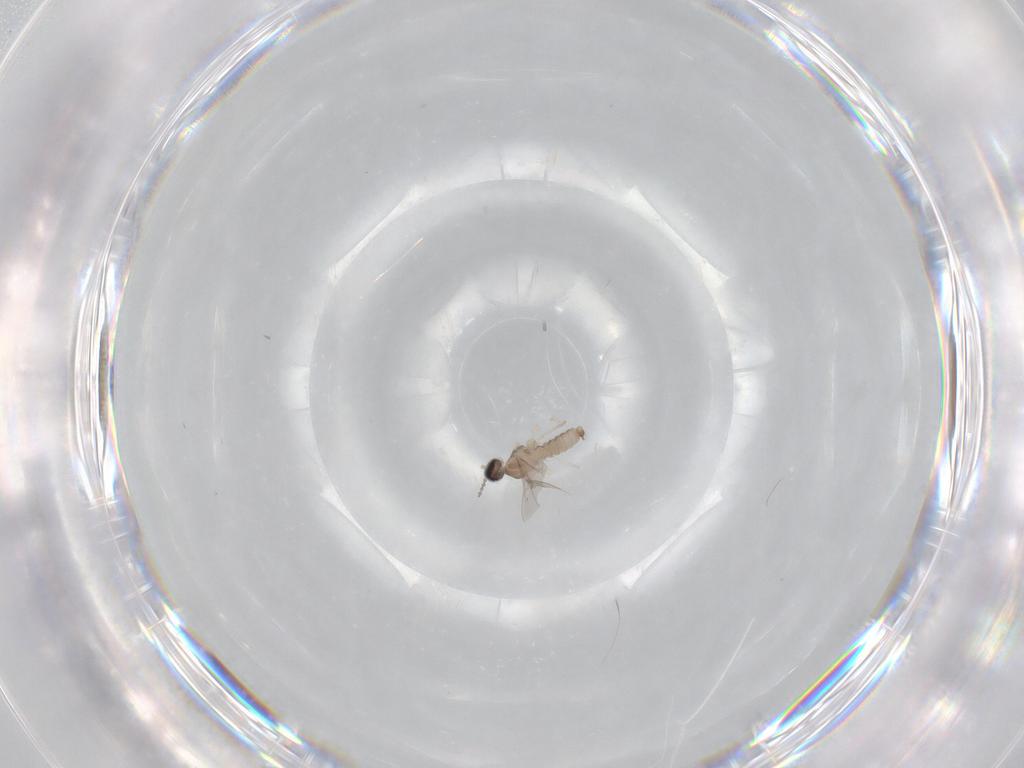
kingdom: Animalia
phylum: Arthropoda
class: Insecta
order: Diptera
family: Cecidomyiidae
